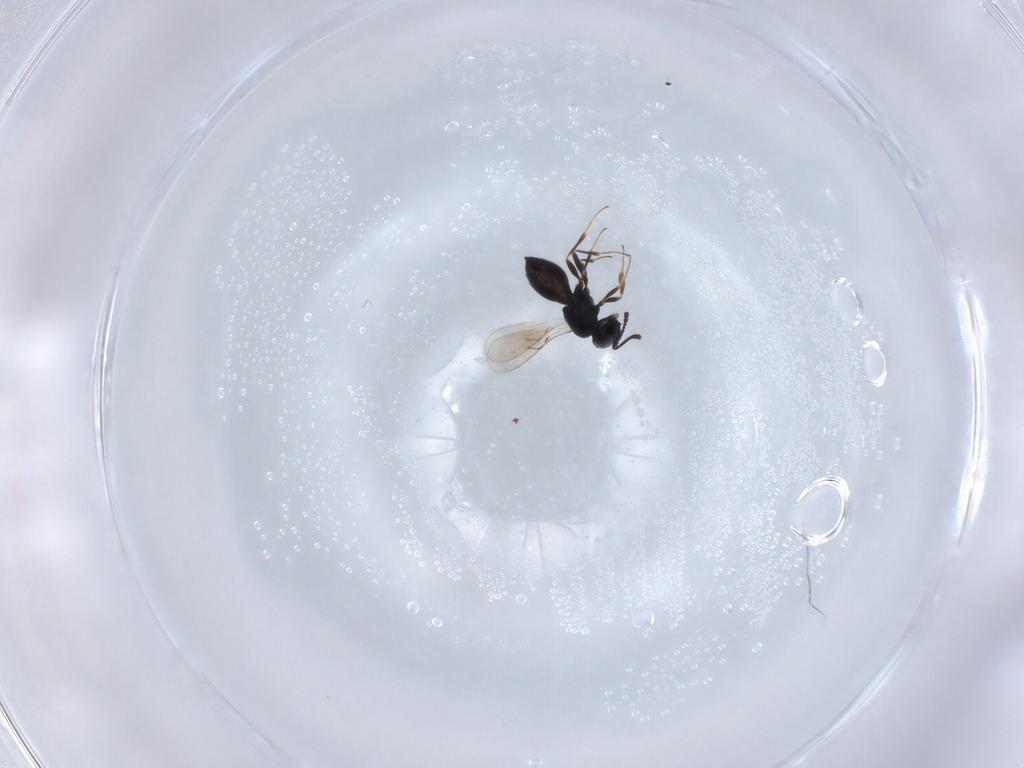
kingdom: Animalia
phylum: Arthropoda
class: Insecta
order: Hymenoptera
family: Scelionidae
